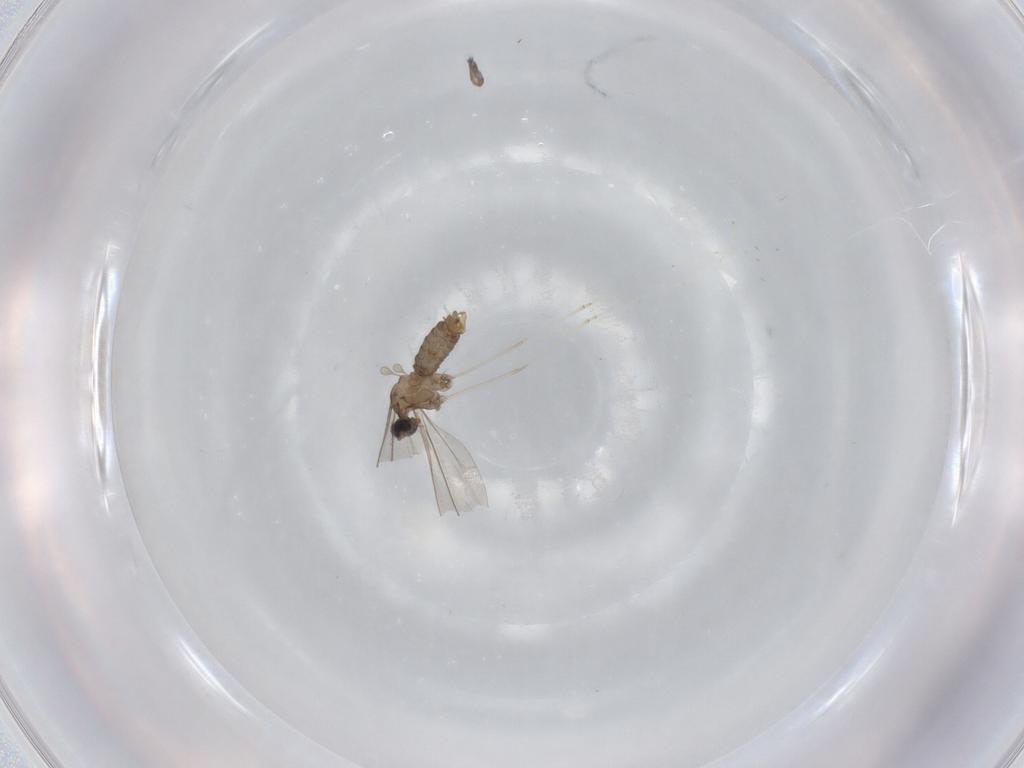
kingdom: Animalia
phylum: Arthropoda
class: Insecta
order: Diptera
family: Cecidomyiidae
